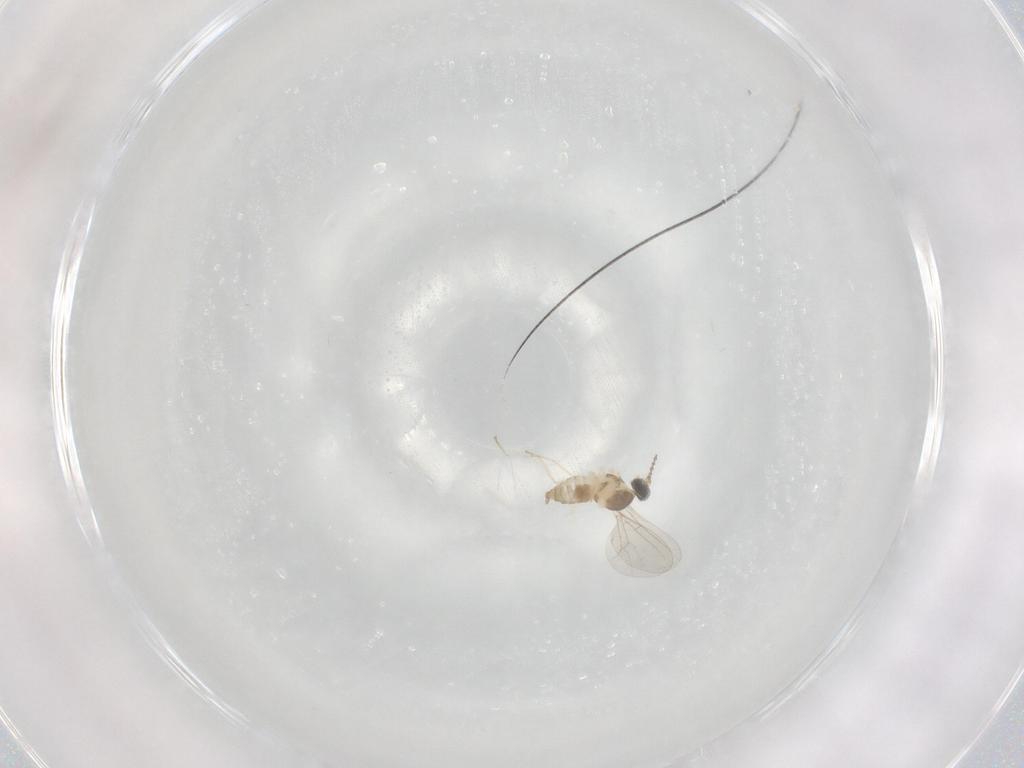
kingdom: Animalia
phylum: Arthropoda
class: Insecta
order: Diptera
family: Cecidomyiidae
